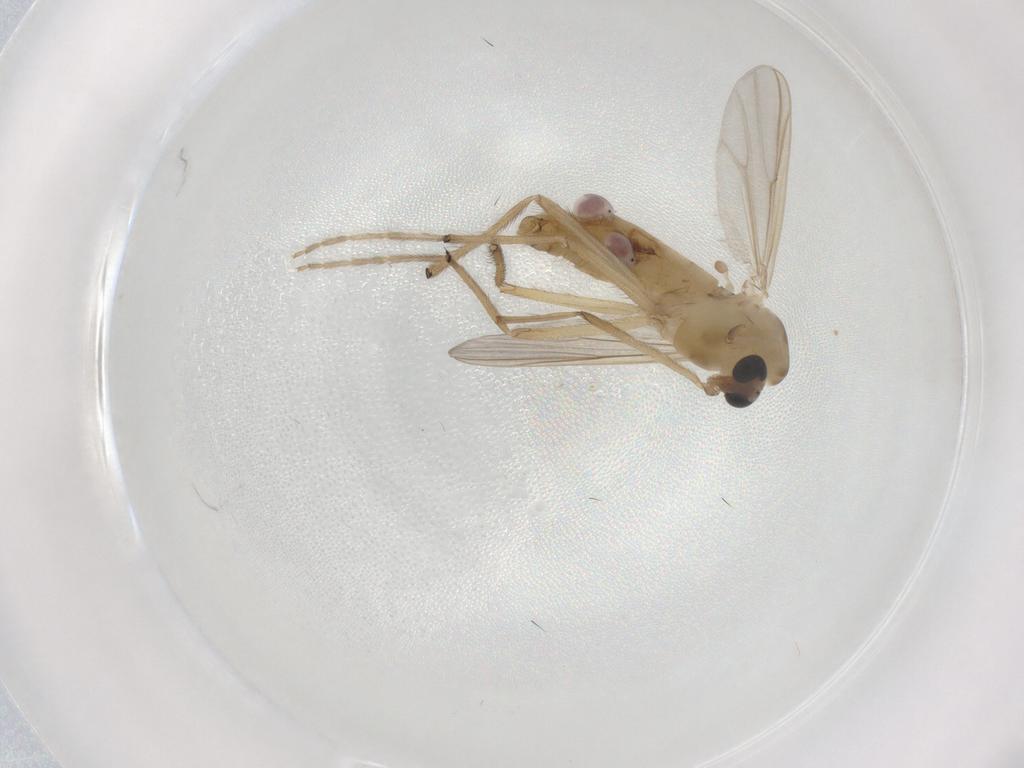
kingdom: Animalia
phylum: Arthropoda
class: Insecta
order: Diptera
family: Chironomidae
